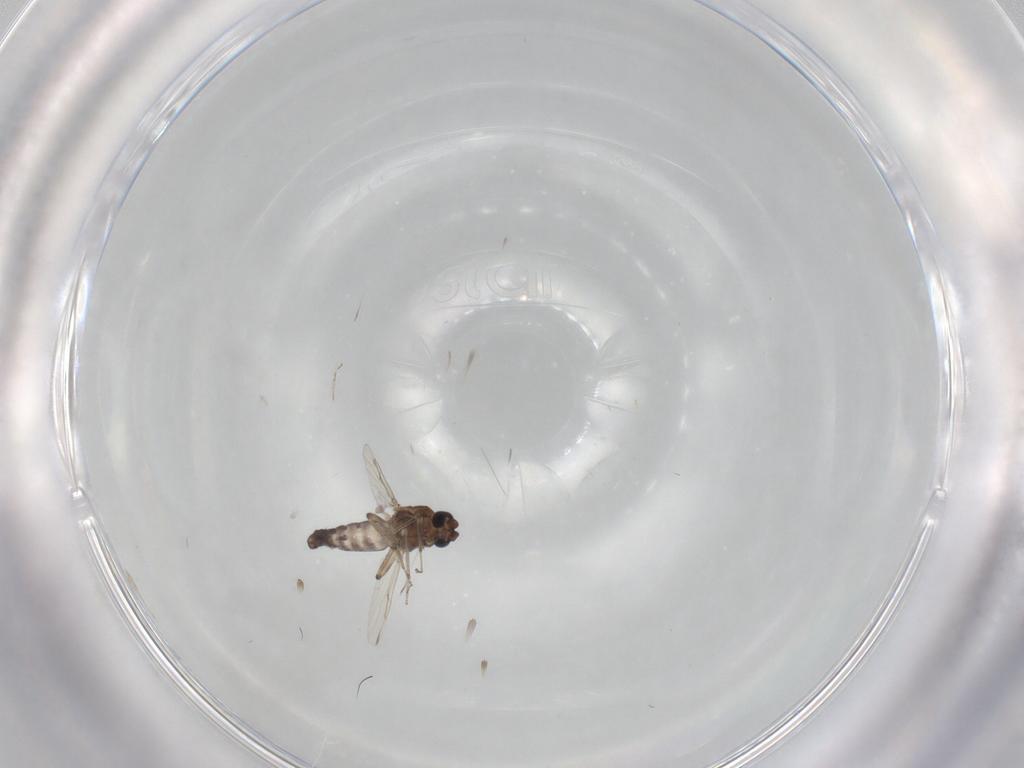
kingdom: Animalia
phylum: Arthropoda
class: Insecta
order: Diptera
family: Ceratopogonidae
